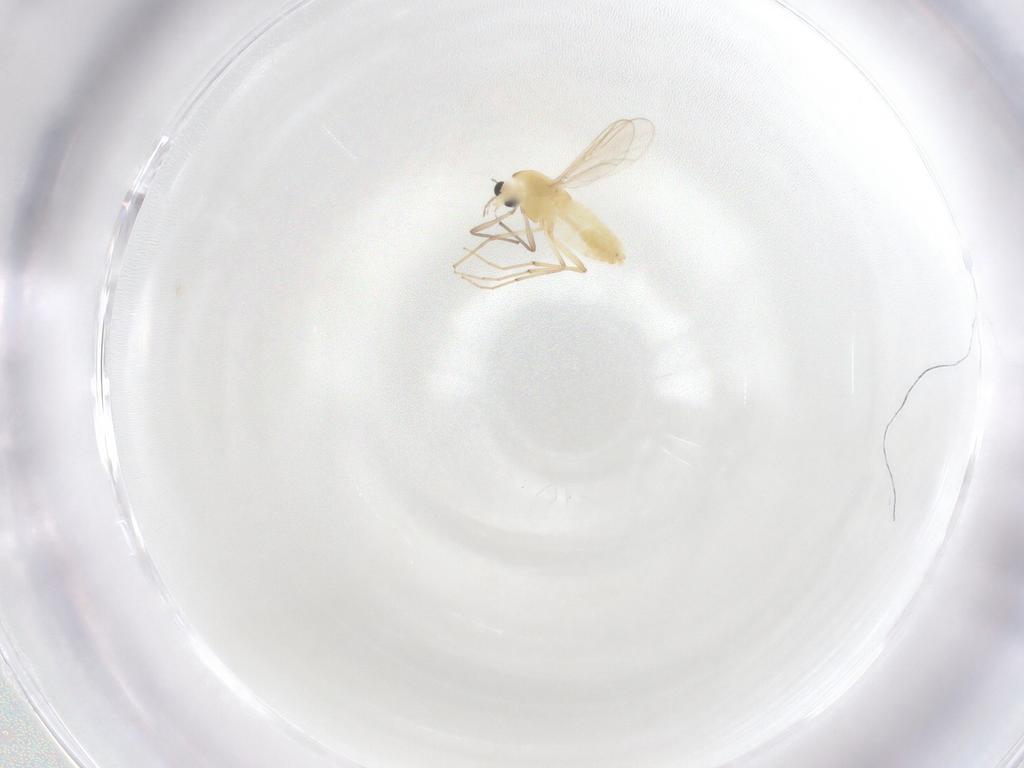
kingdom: Animalia
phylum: Arthropoda
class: Insecta
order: Diptera
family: Chironomidae
